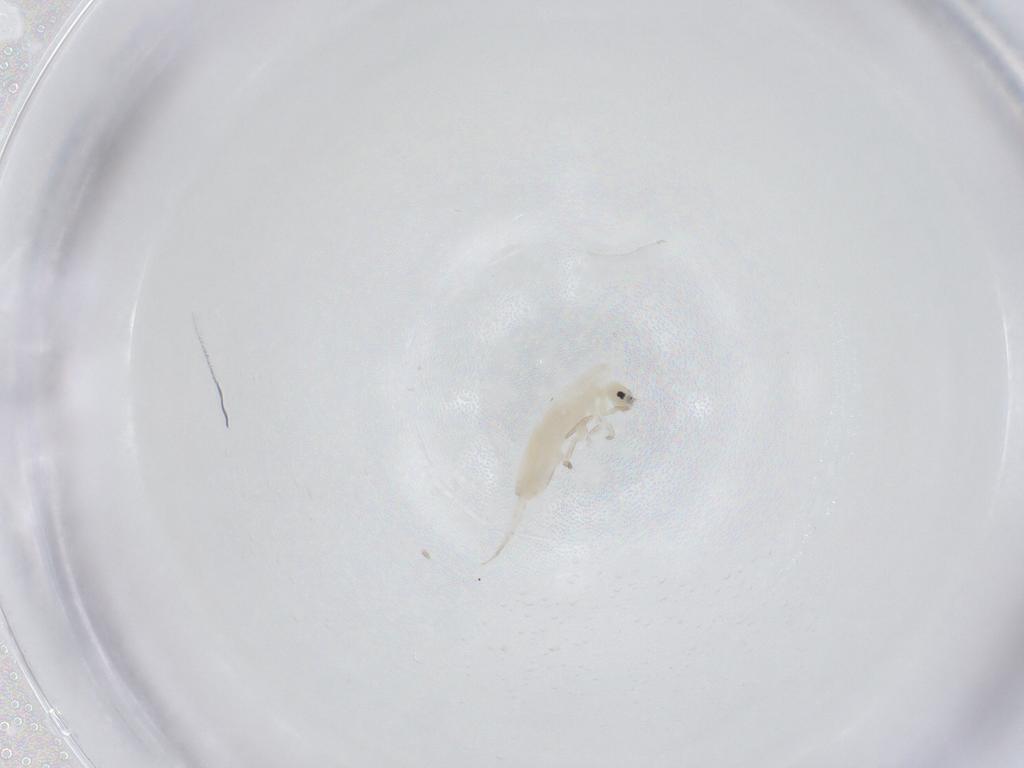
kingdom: Animalia
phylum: Arthropoda
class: Collembola
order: Entomobryomorpha
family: Entomobryidae
